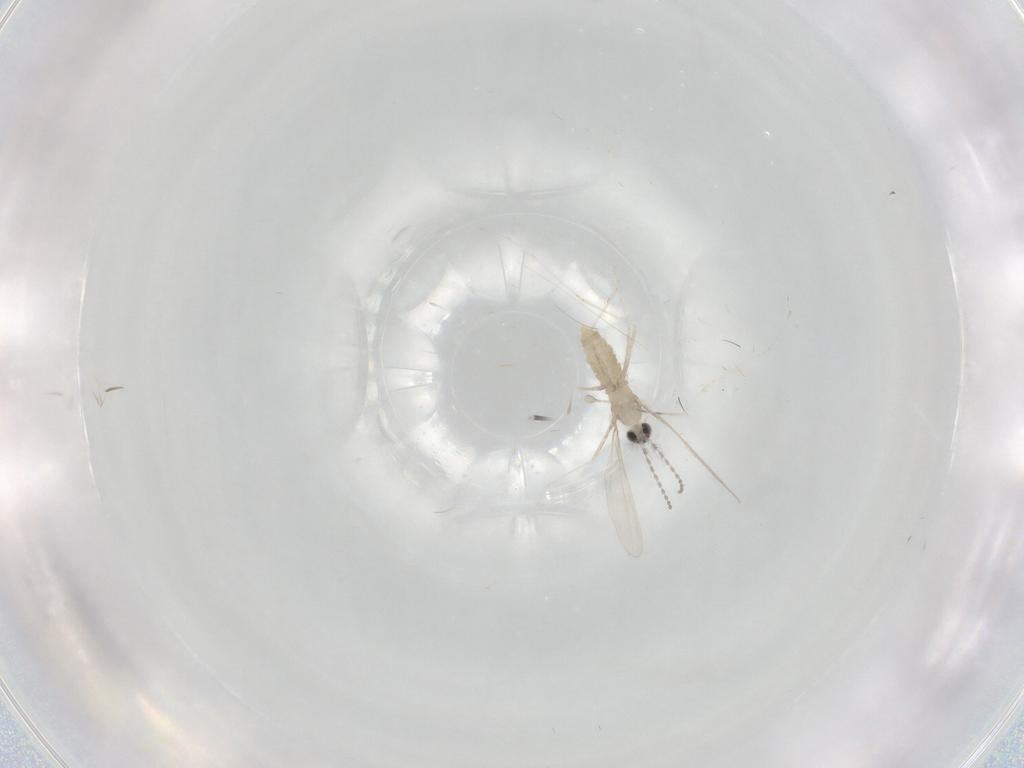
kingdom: Animalia
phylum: Arthropoda
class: Insecta
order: Diptera
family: Cecidomyiidae
